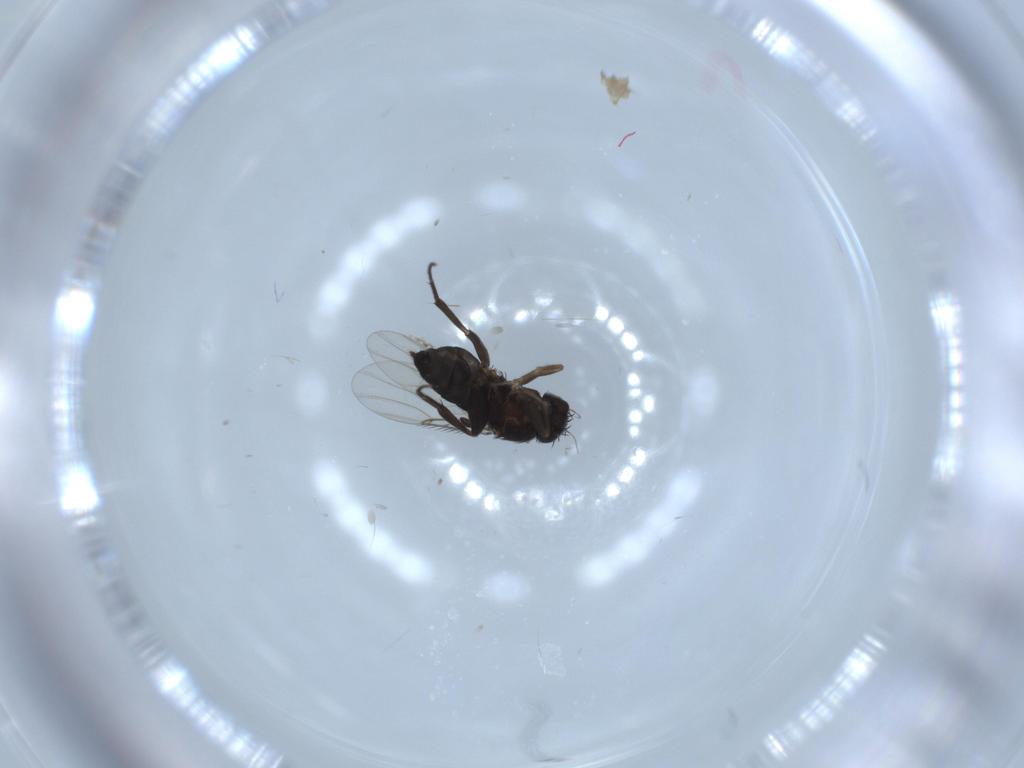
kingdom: Animalia
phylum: Arthropoda
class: Insecta
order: Diptera
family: Phoridae
